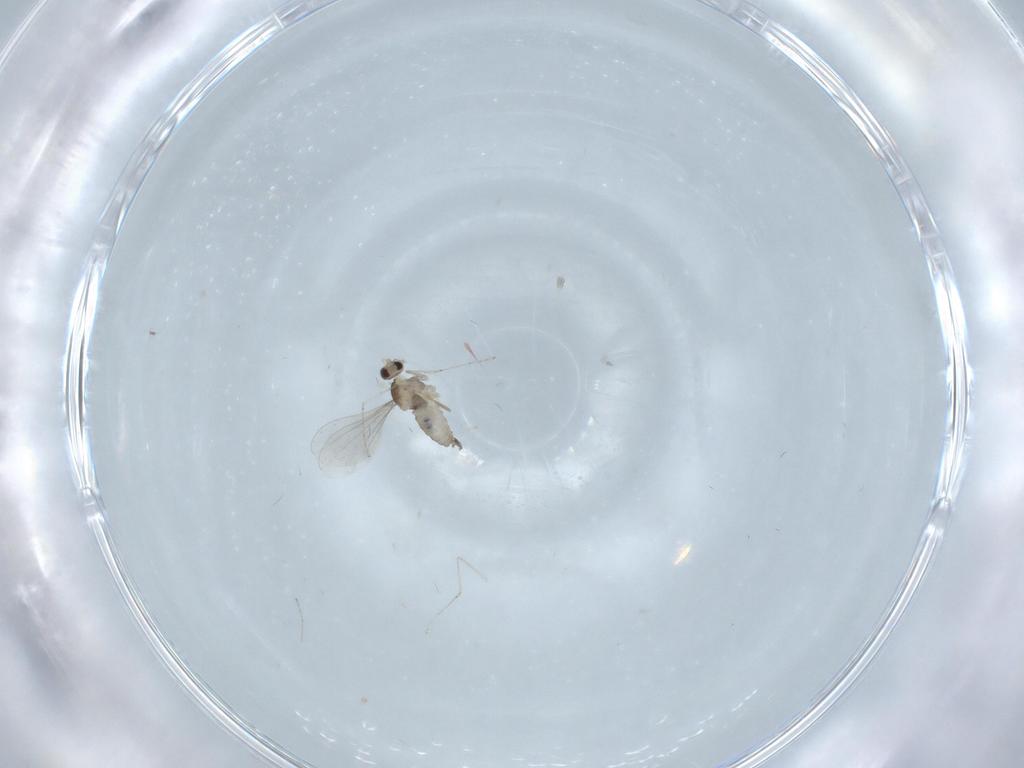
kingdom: Animalia
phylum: Arthropoda
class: Insecta
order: Diptera
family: Cecidomyiidae
